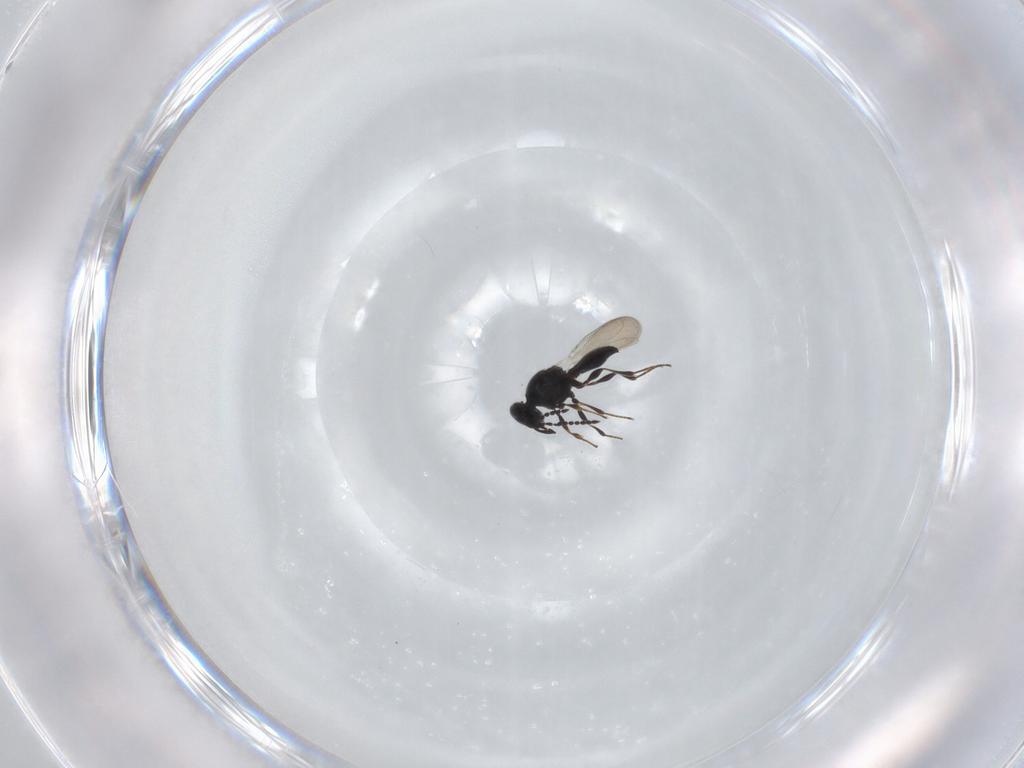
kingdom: Animalia
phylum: Arthropoda
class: Insecta
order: Hymenoptera
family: Platygastridae
